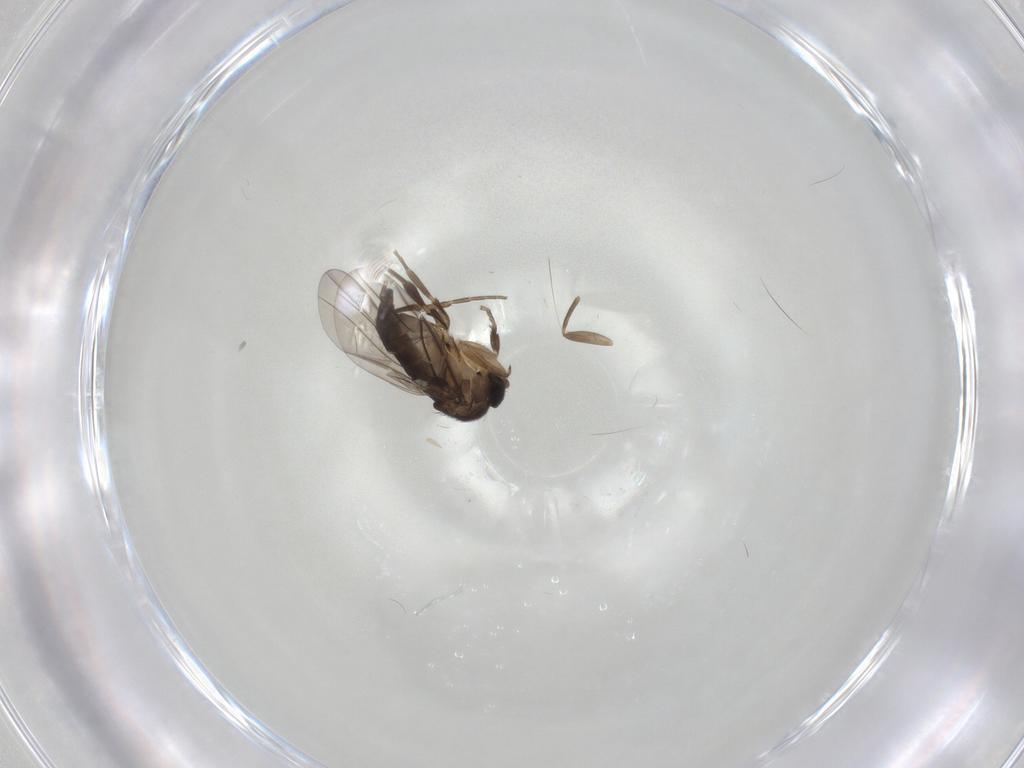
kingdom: Animalia
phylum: Arthropoda
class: Insecta
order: Diptera
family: Phoridae
